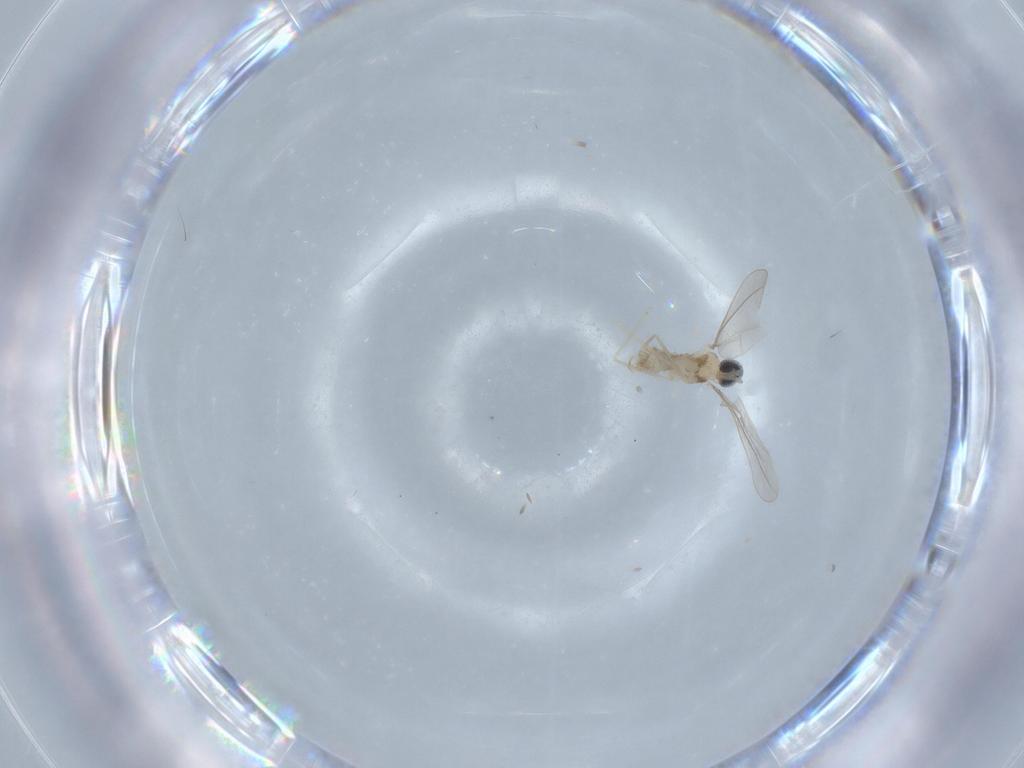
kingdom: Animalia
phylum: Arthropoda
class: Insecta
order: Diptera
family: Cecidomyiidae
